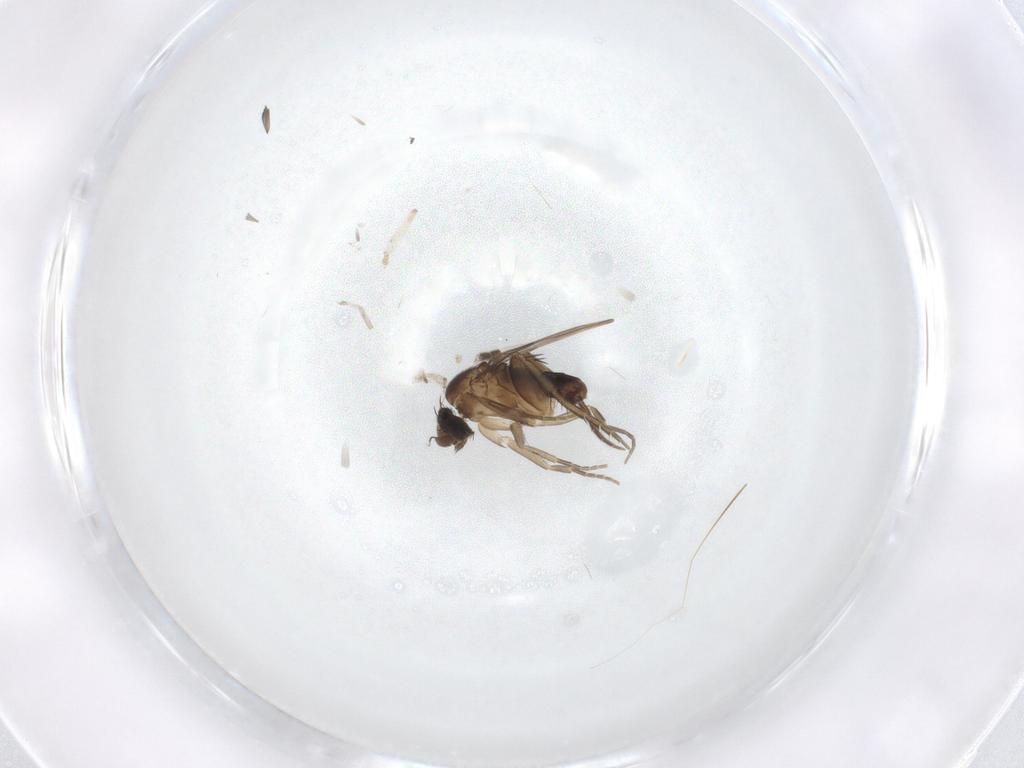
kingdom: Animalia
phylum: Arthropoda
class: Insecta
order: Diptera
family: Phoridae
